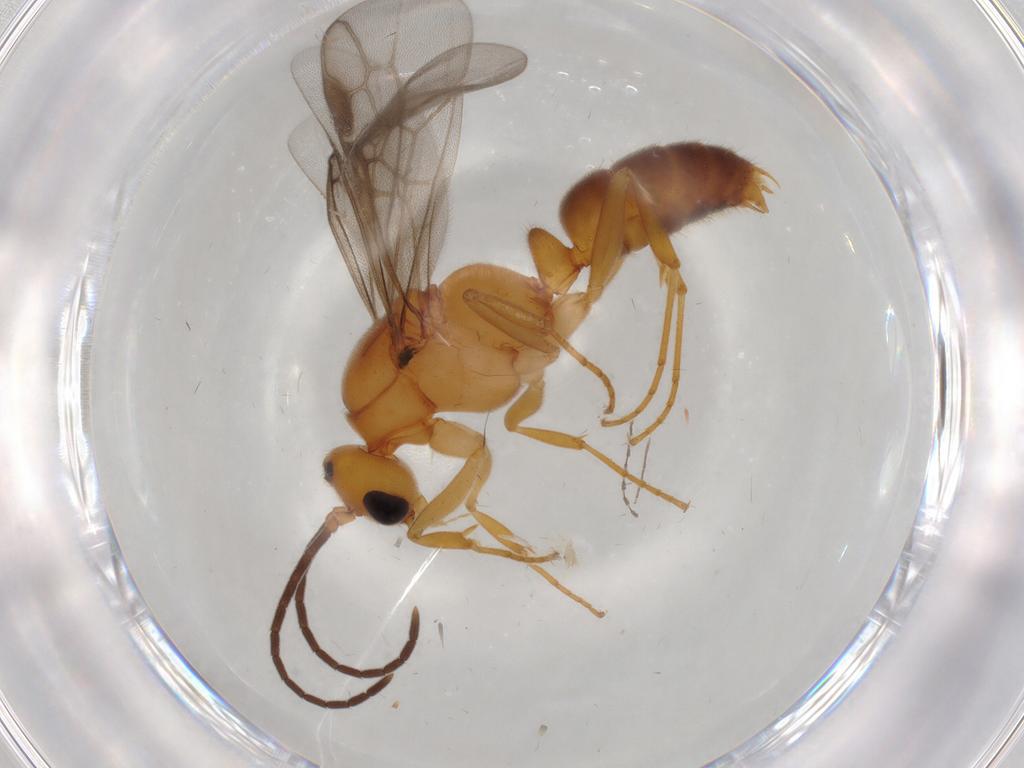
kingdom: Animalia
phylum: Arthropoda
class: Insecta
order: Hymenoptera
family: Formicidae
